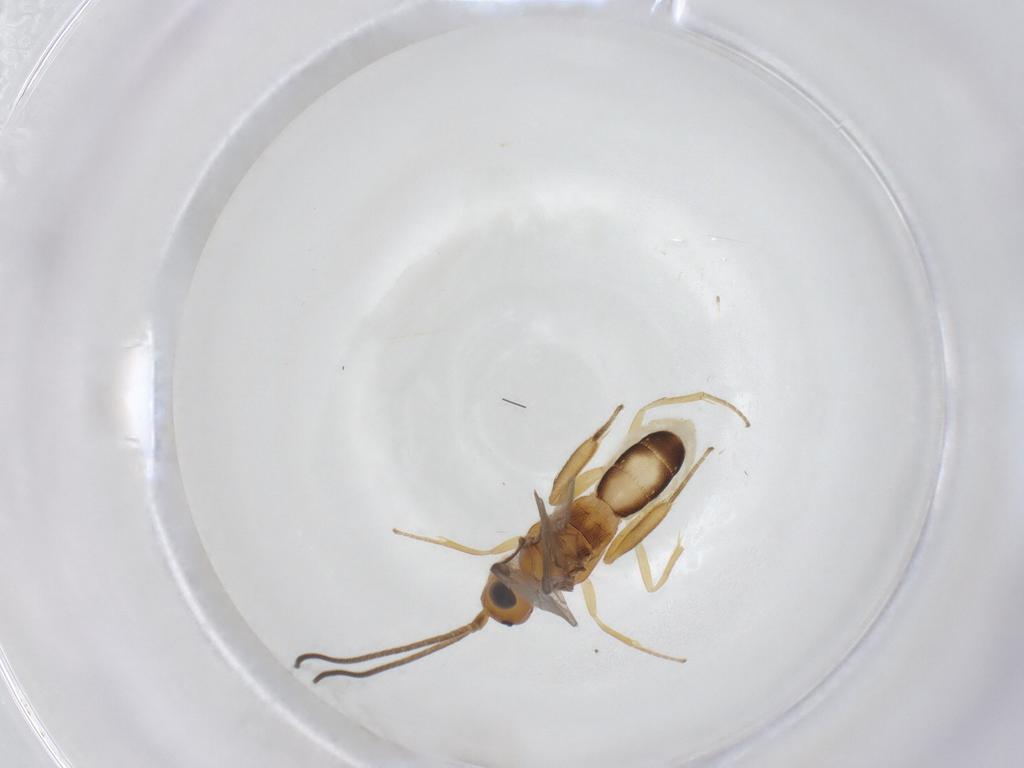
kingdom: Animalia
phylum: Arthropoda
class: Insecta
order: Hymenoptera
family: Braconidae
